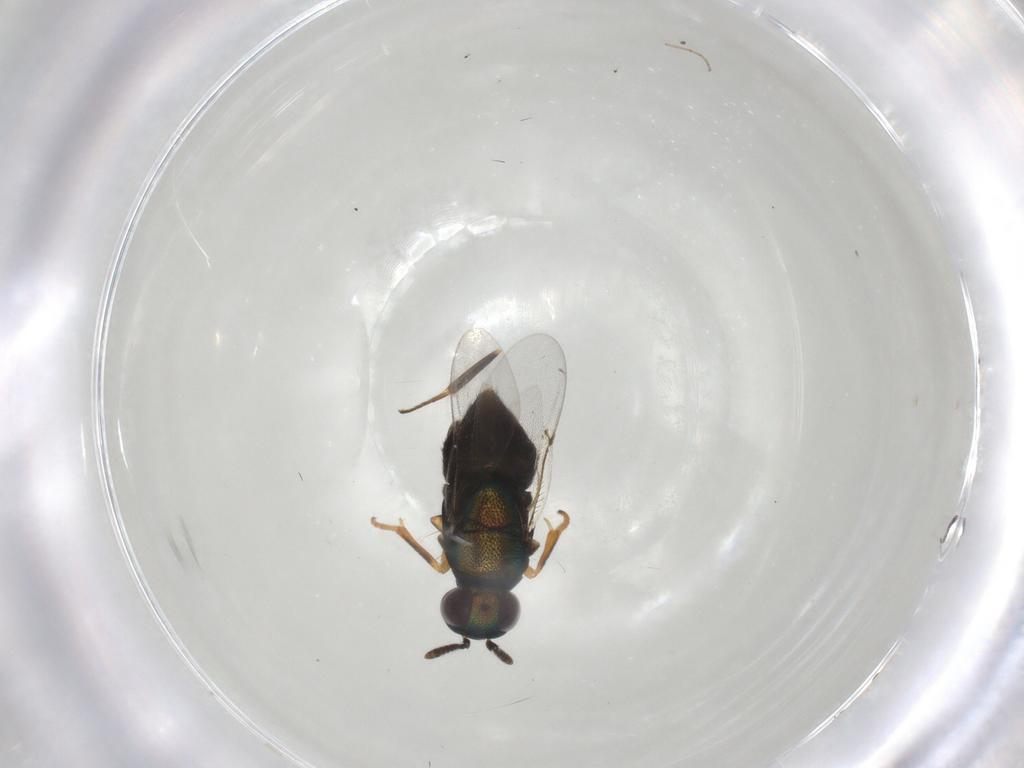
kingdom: Animalia
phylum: Arthropoda
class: Insecta
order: Hymenoptera
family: Encyrtidae
